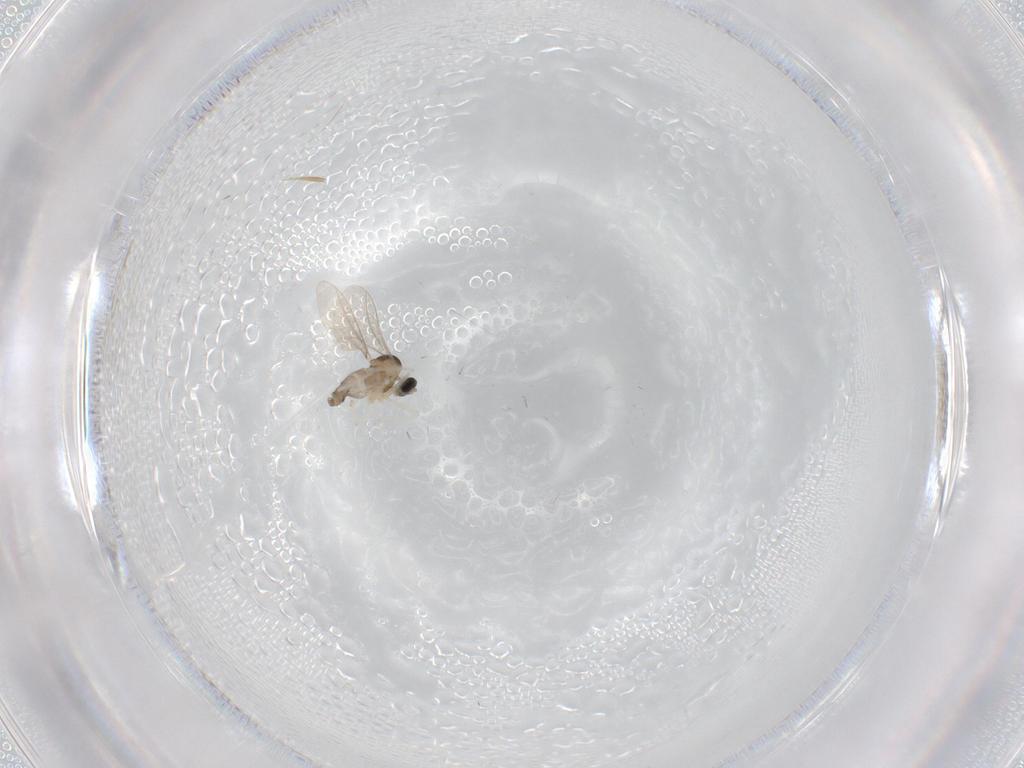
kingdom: Animalia
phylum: Arthropoda
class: Insecta
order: Diptera
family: Cecidomyiidae
